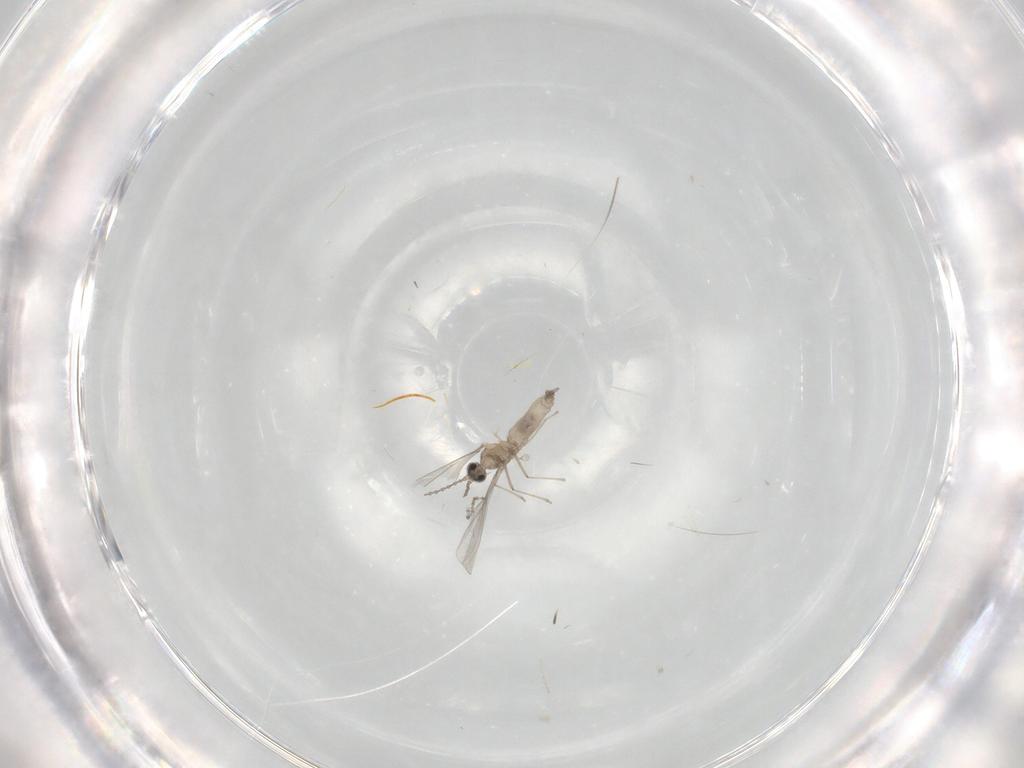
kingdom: Animalia
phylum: Arthropoda
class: Insecta
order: Diptera
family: Cecidomyiidae
